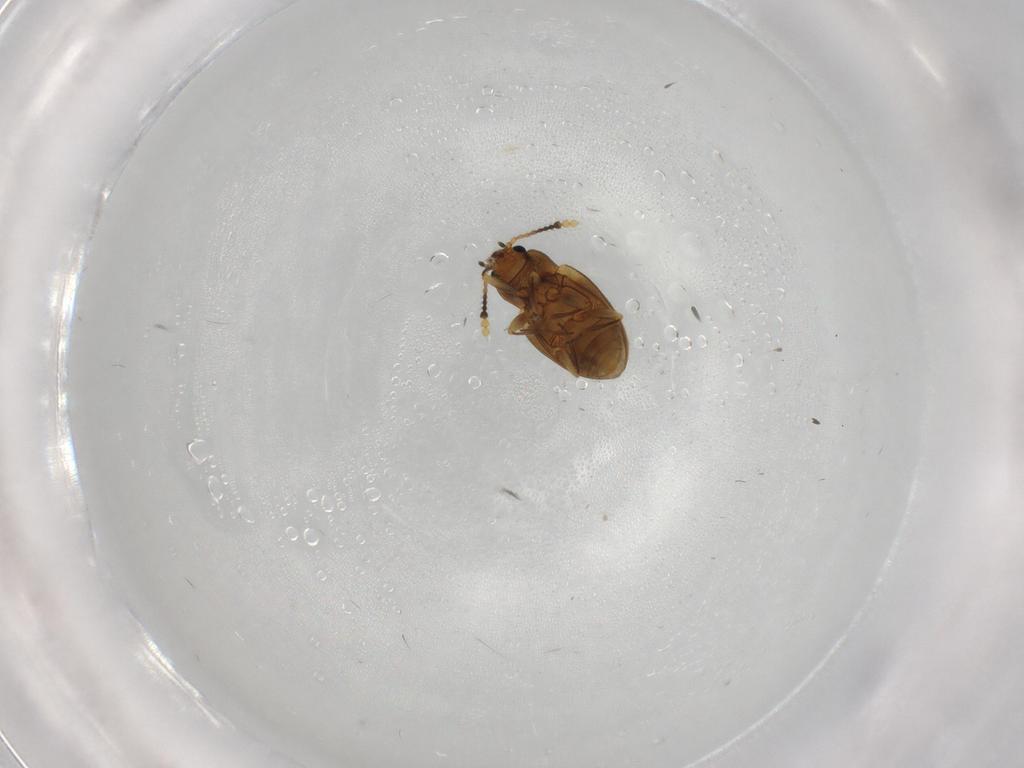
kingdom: Animalia
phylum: Arthropoda
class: Insecta
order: Coleoptera
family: Erotylidae
